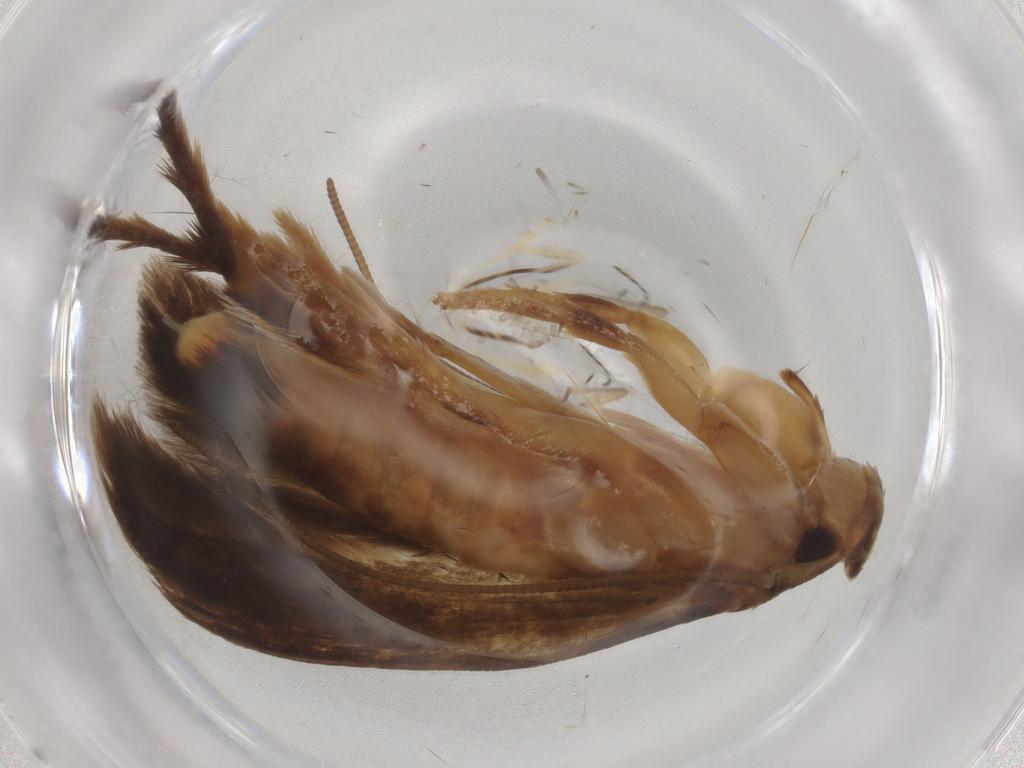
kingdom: Animalia
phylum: Arthropoda
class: Insecta
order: Lepidoptera
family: Tineidae
